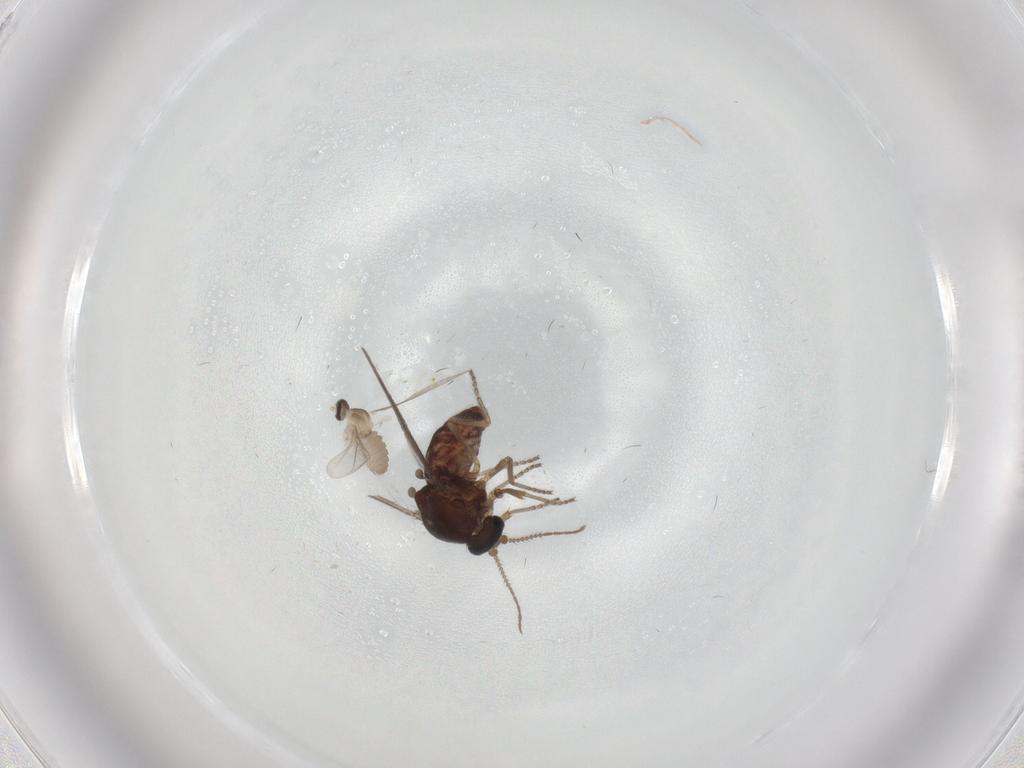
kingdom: Animalia
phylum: Arthropoda
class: Insecta
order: Diptera
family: Ceratopogonidae
